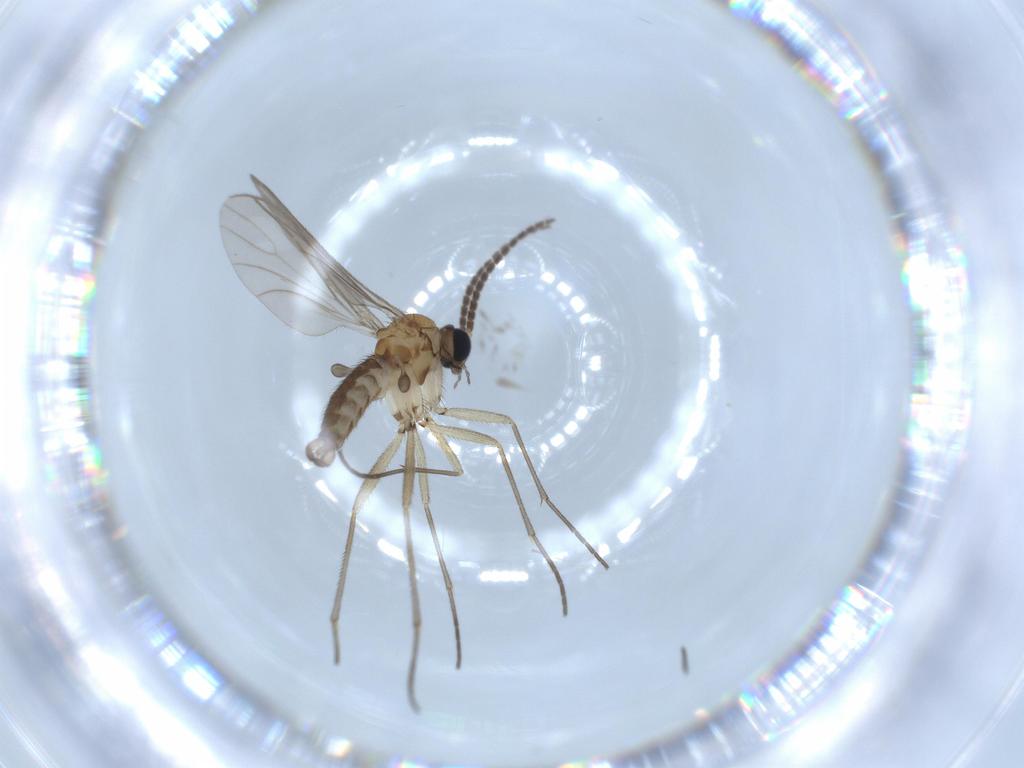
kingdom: Animalia
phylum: Arthropoda
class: Insecta
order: Diptera
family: Sciaridae
